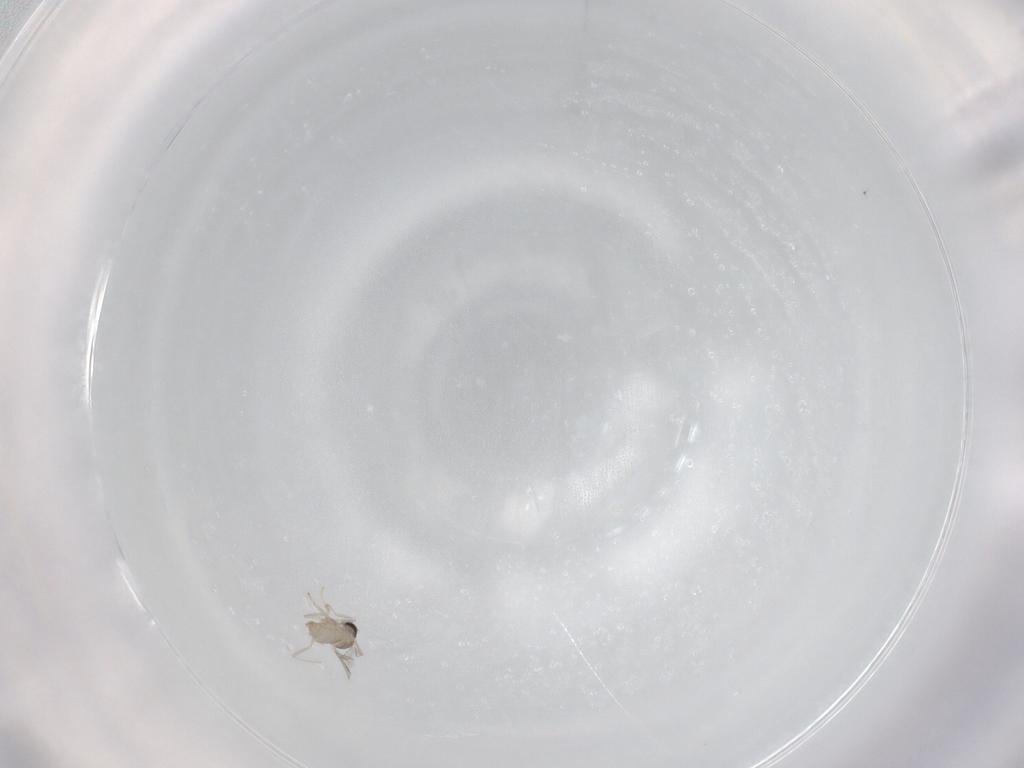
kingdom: Animalia
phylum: Arthropoda
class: Insecta
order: Diptera
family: Cecidomyiidae
